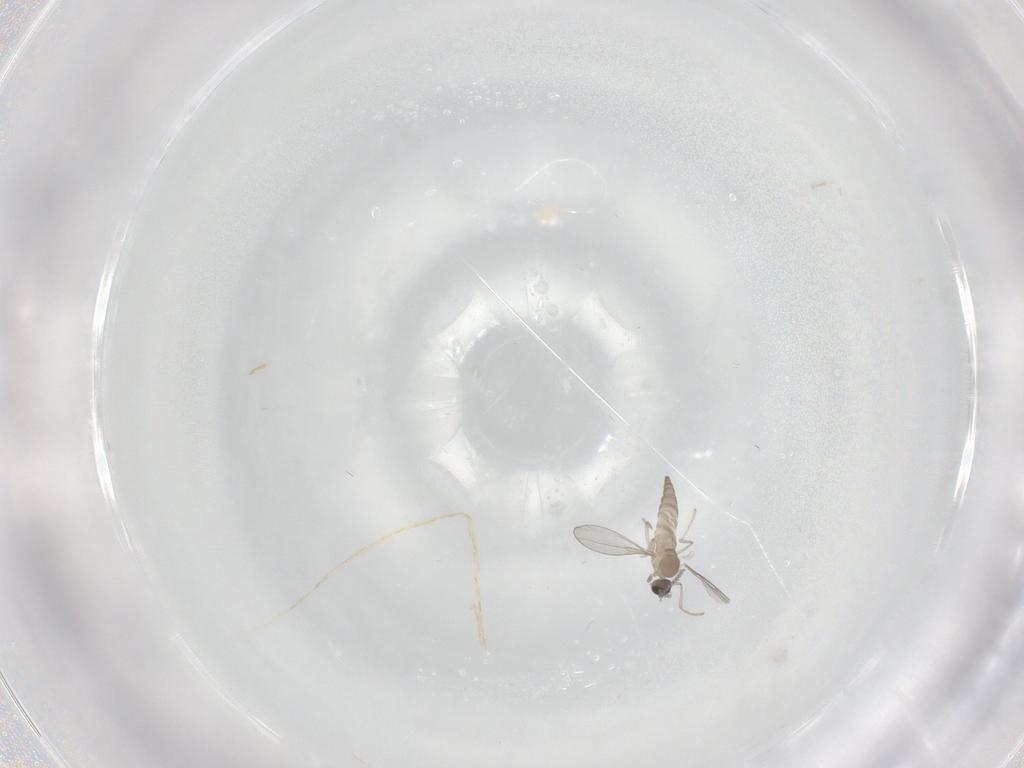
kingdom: Animalia
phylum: Arthropoda
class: Insecta
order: Diptera
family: Cecidomyiidae
